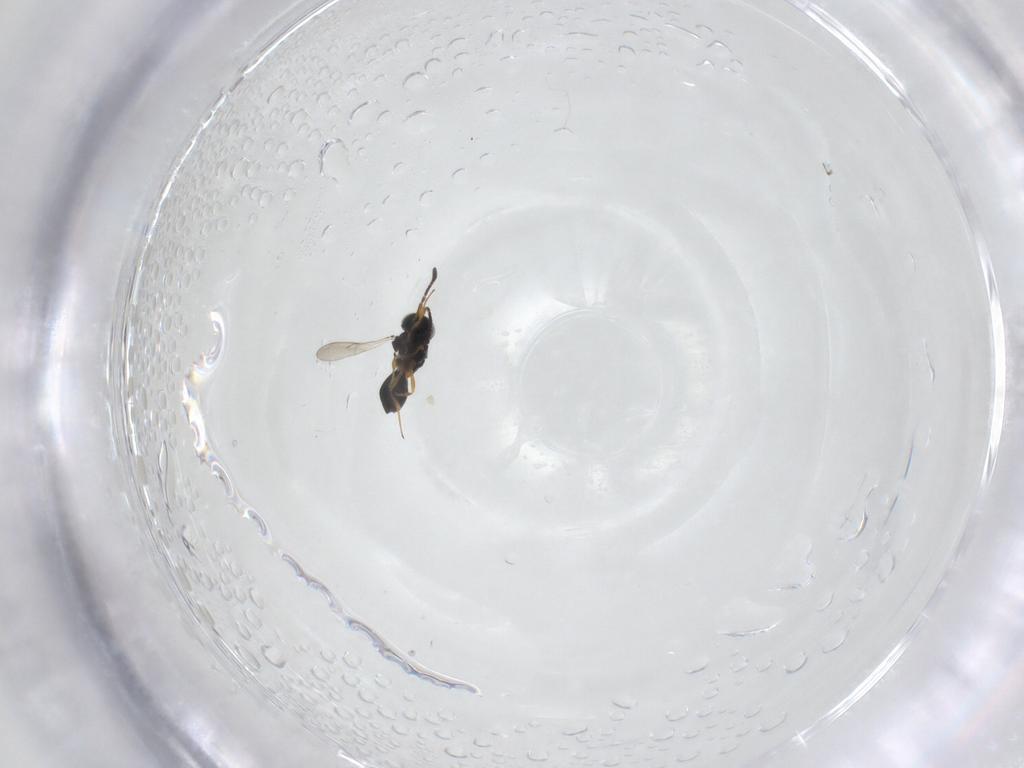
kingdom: Animalia
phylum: Arthropoda
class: Insecta
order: Hymenoptera
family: Scelionidae
